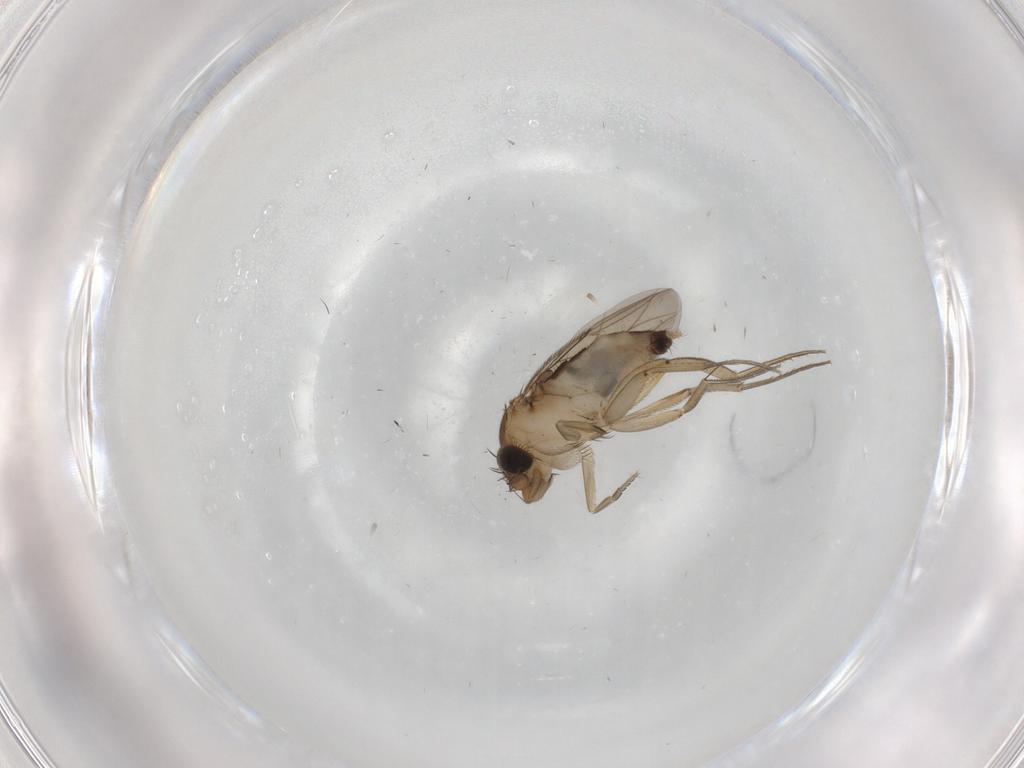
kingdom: Animalia
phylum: Arthropoda
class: Insecta
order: Diptera
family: Phoridae
